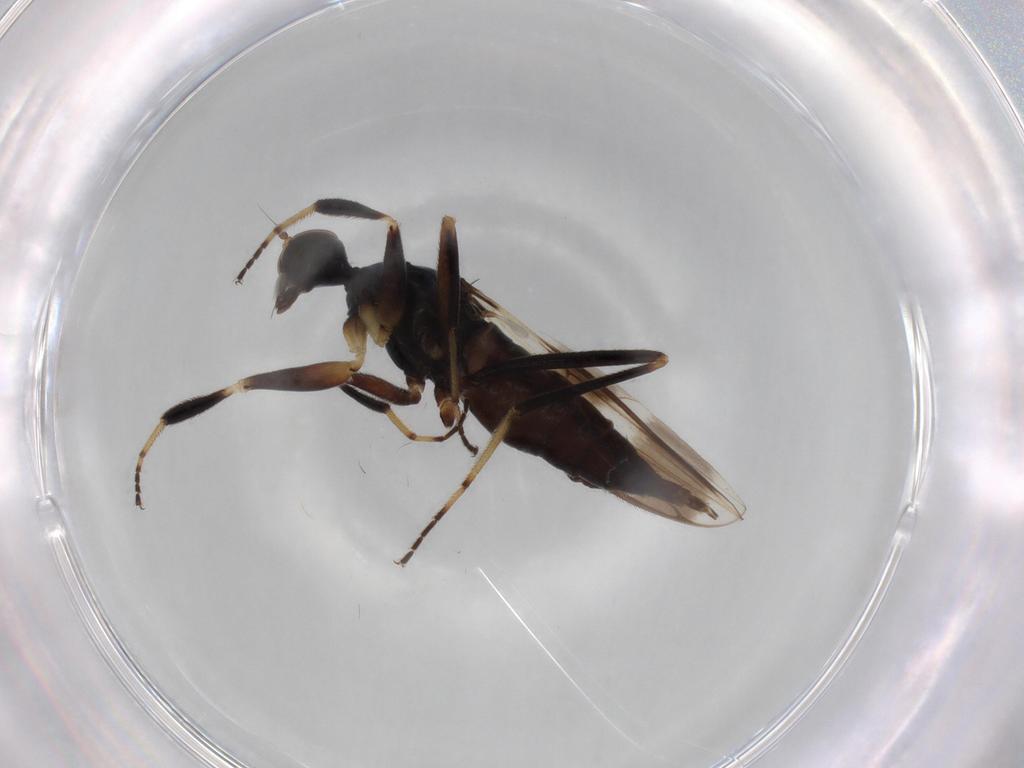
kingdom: Animalia
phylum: Arthropoda
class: Insecta
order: Diptera
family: Hybotidae
